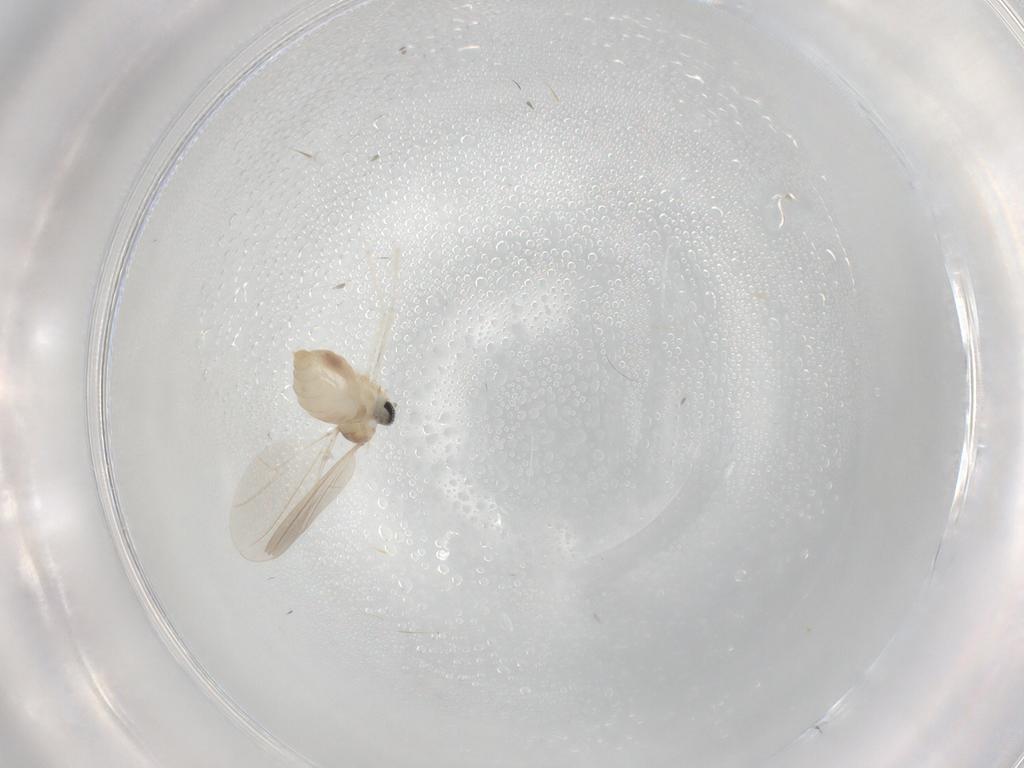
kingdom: Animalia
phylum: Arthropoda
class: Insecta
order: Diptera
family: Cecidomyiidae
